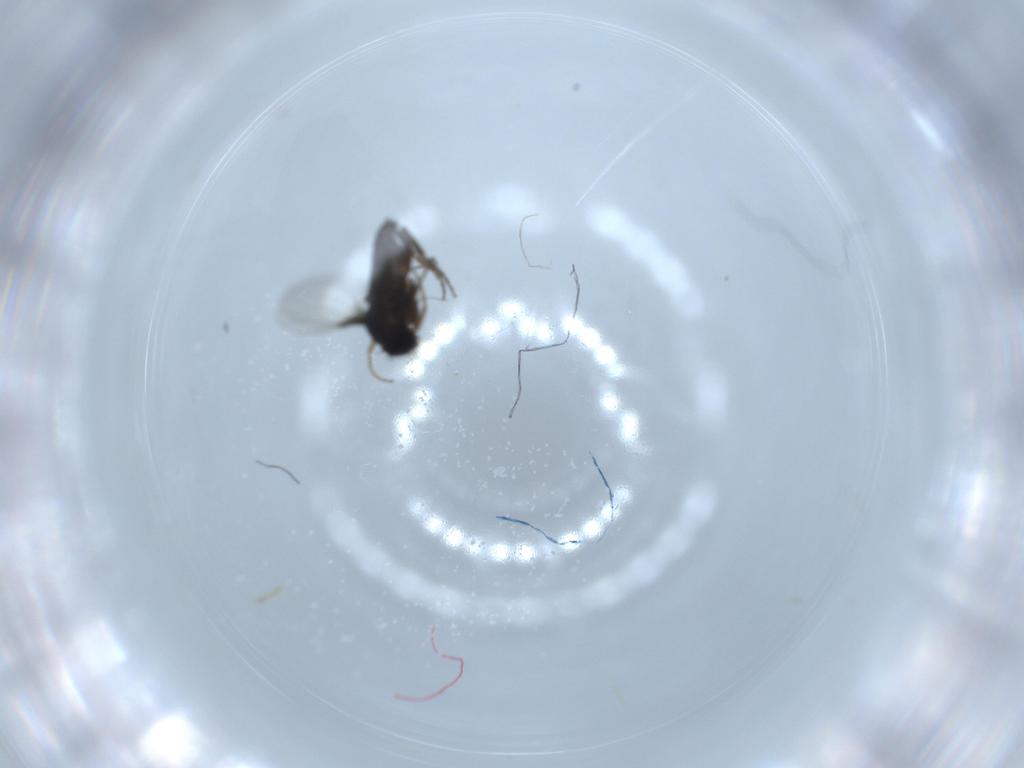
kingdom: Animalia
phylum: Arthropoda
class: Insecta
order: Diptera
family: Phoridae
